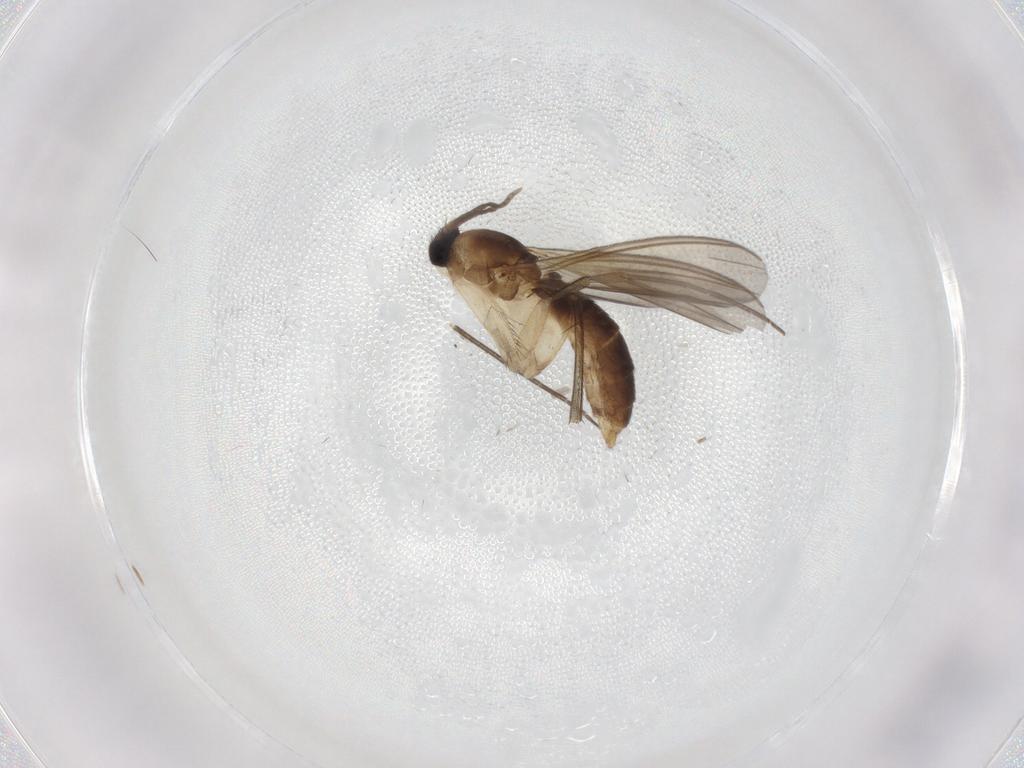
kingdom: Animalia
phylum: Arthropoda
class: Insecta
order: Diptera
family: Mycetophilidae
